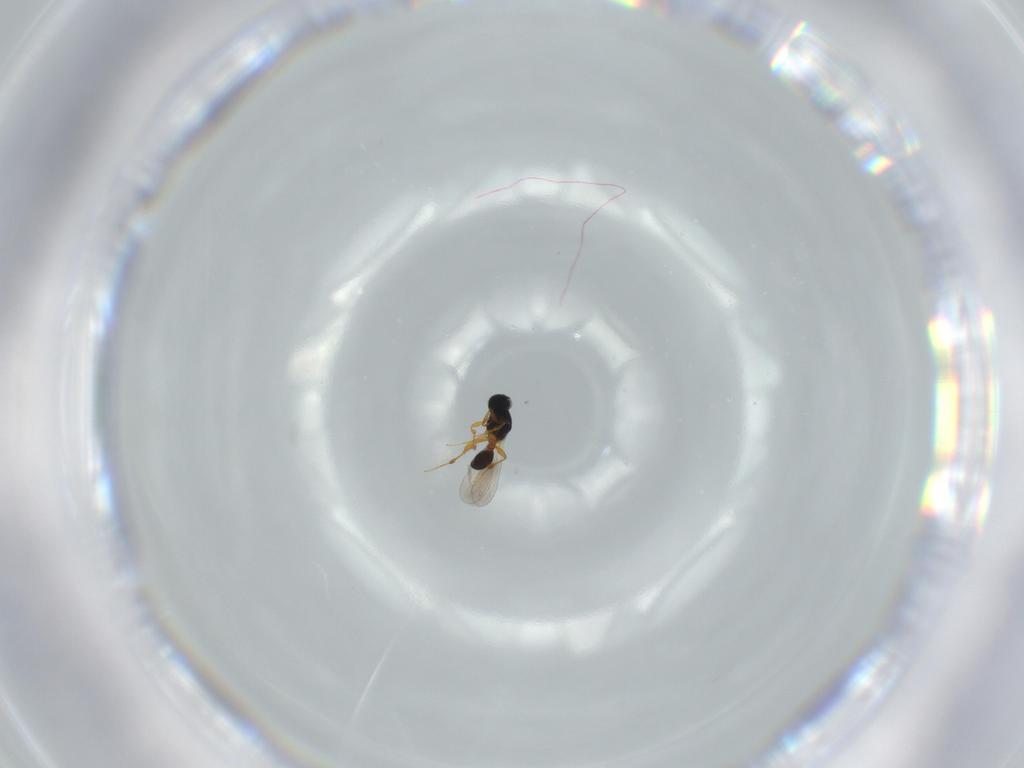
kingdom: Animalia
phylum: Arthropoda
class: Insecta
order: Hymenoptera
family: Platygastridae
